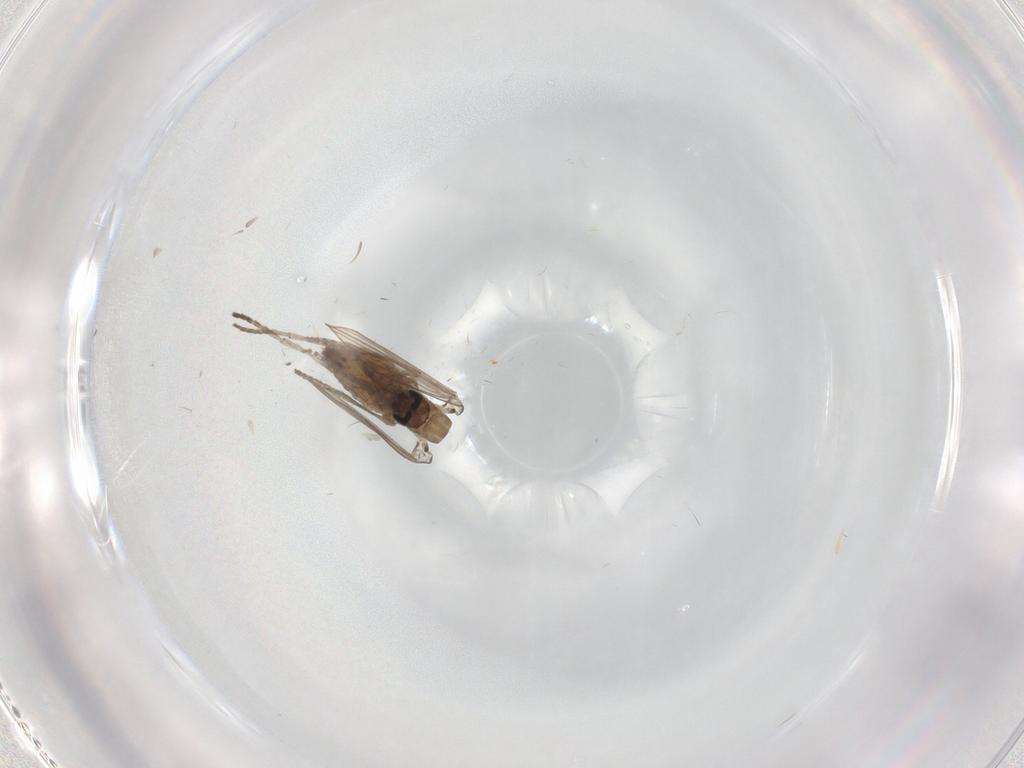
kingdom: Animalia
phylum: Arthropoda
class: Insecta
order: Diptera
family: Psychodidae
